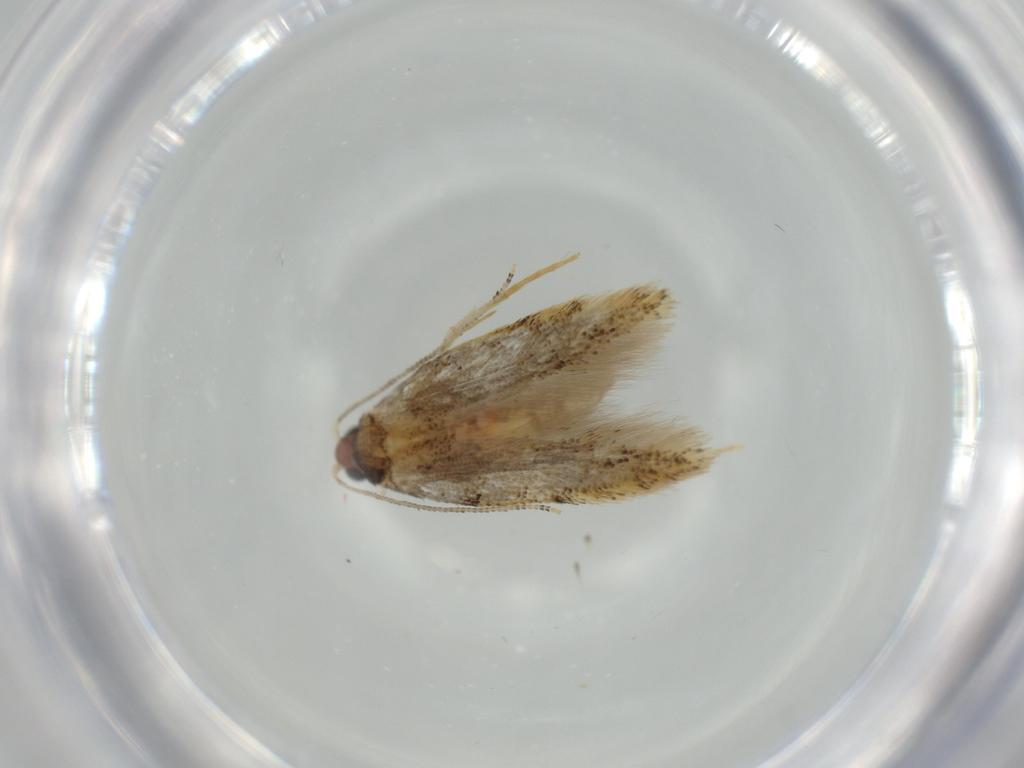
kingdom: Animalia
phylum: Arthropoda
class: Insecta
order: Lepidoptera
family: Tineidae
